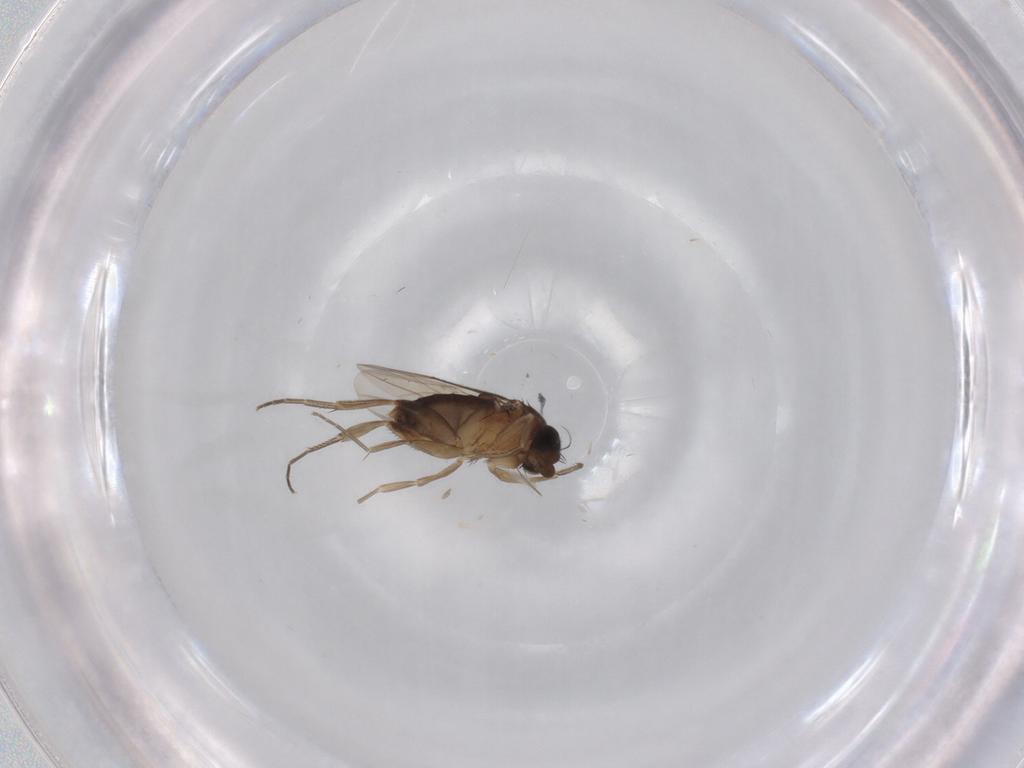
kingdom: Animalia
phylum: Arthropoda
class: Insecta
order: Diptera
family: Phoridae
